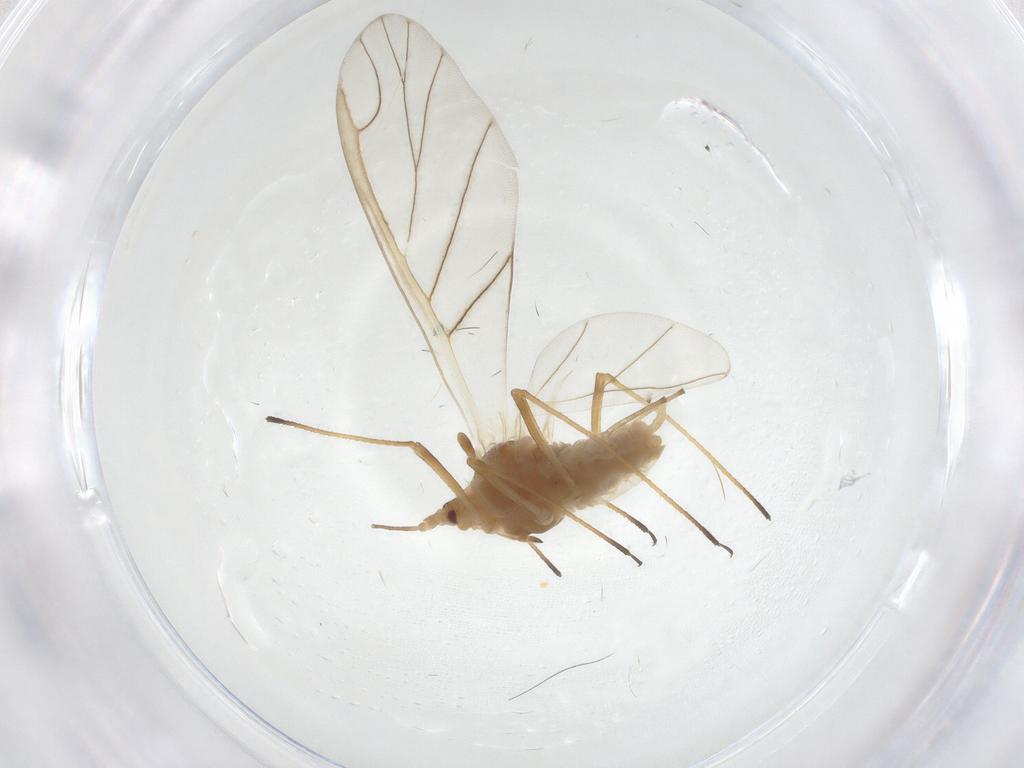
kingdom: Animalia
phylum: Arthropoda
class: Insecta
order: Hemiptera
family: Aphididae
